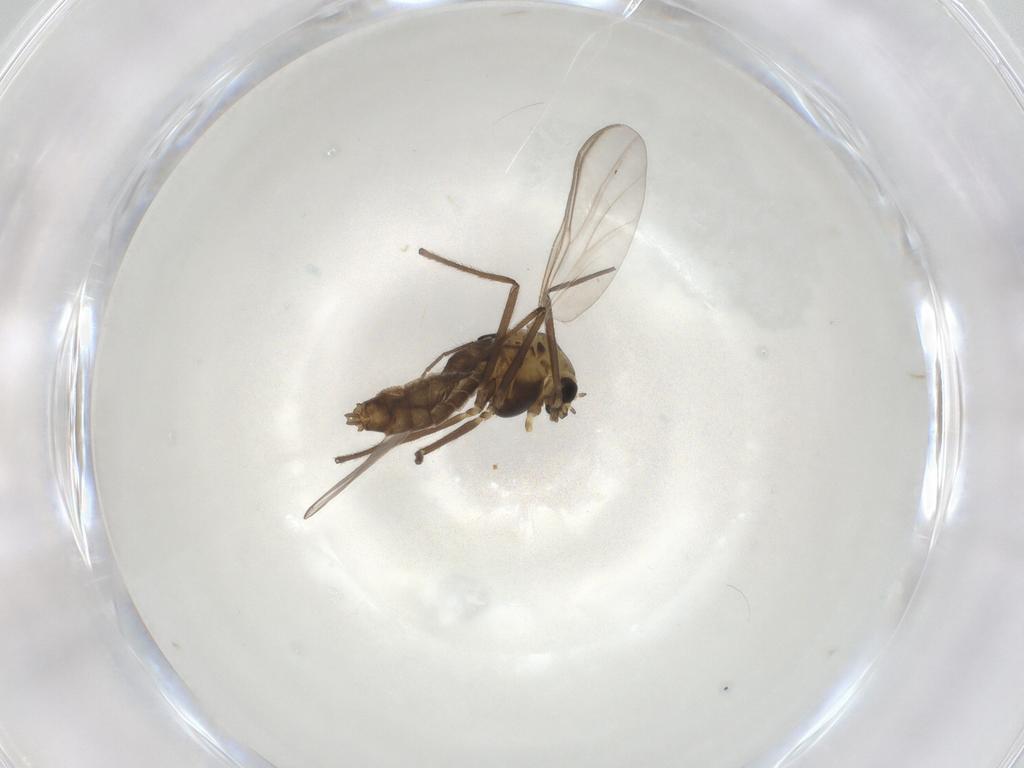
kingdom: Animalia
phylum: Arthropoda
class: Insecta
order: Diptera
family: Chironomidae
